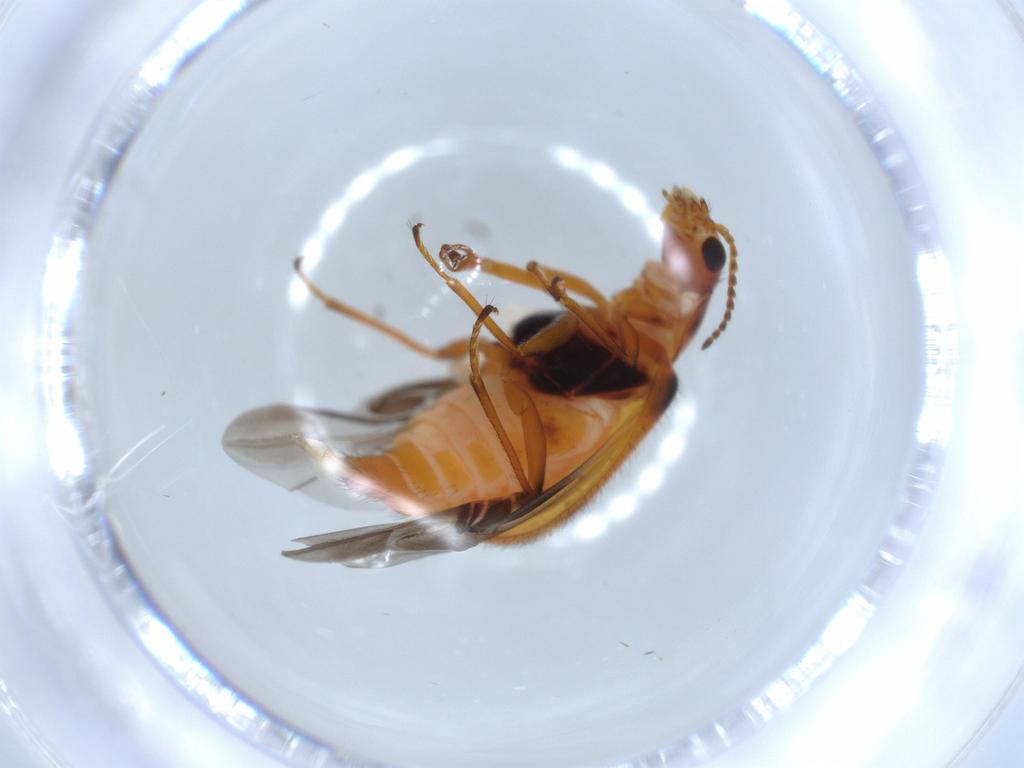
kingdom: Animalia
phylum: Arthropoda
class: Insecta
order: Coleoptera
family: Melyridae
